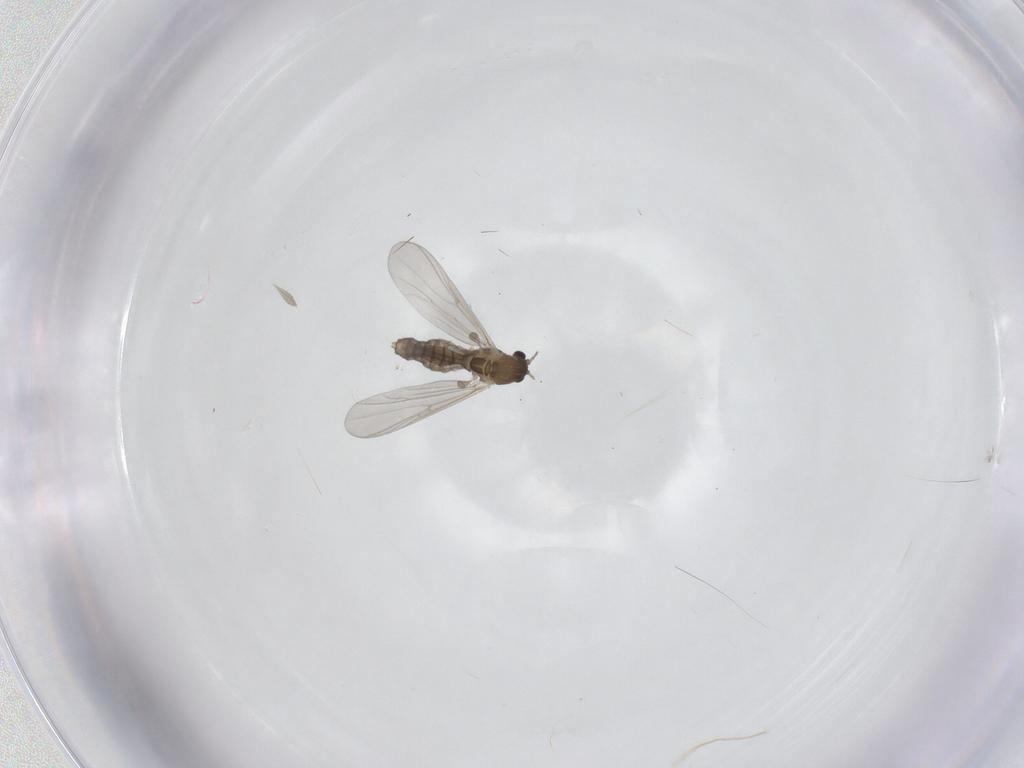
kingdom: Animalia
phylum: Arthropoda
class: Insecta
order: Diptera
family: Chironomidae
